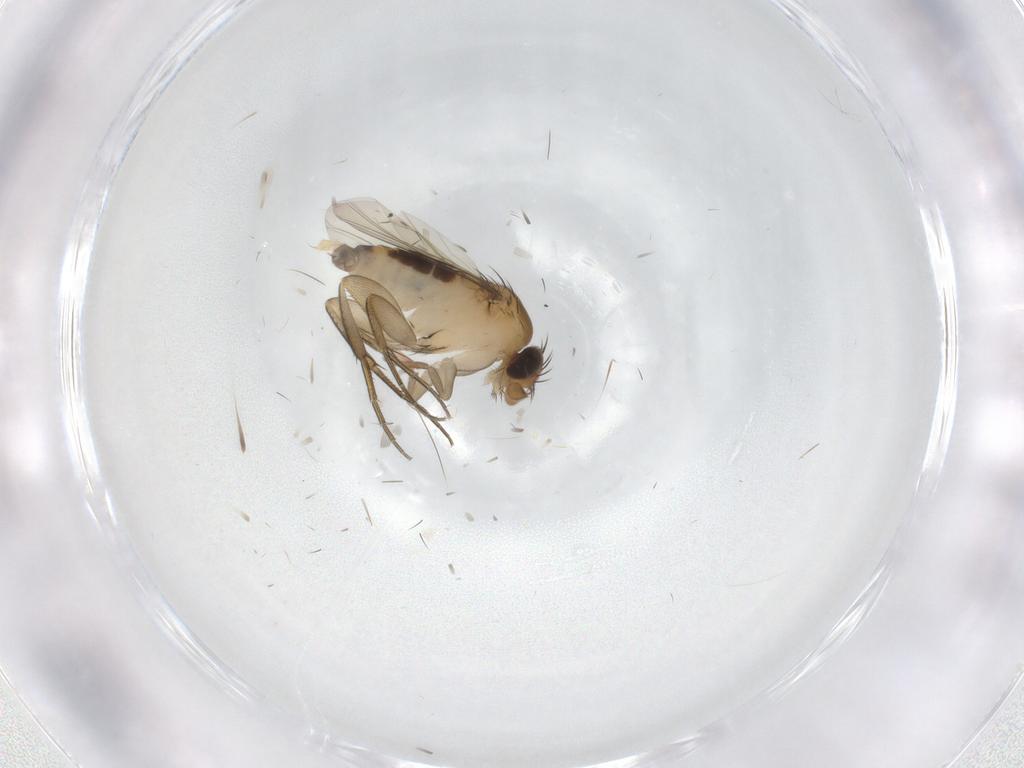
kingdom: Animalia
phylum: Arthropoda
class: Insecta
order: Diptera
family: Phoridae
